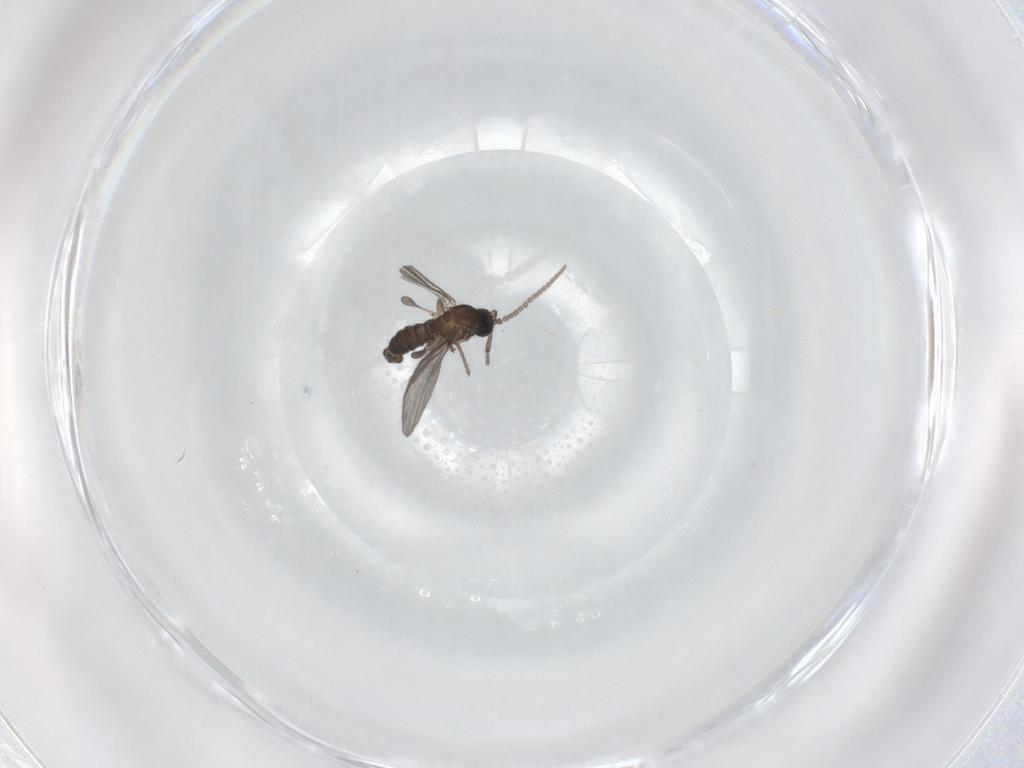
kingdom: Animalia
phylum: Arthropoda
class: Insecta
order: Diptera
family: Sciaridae
